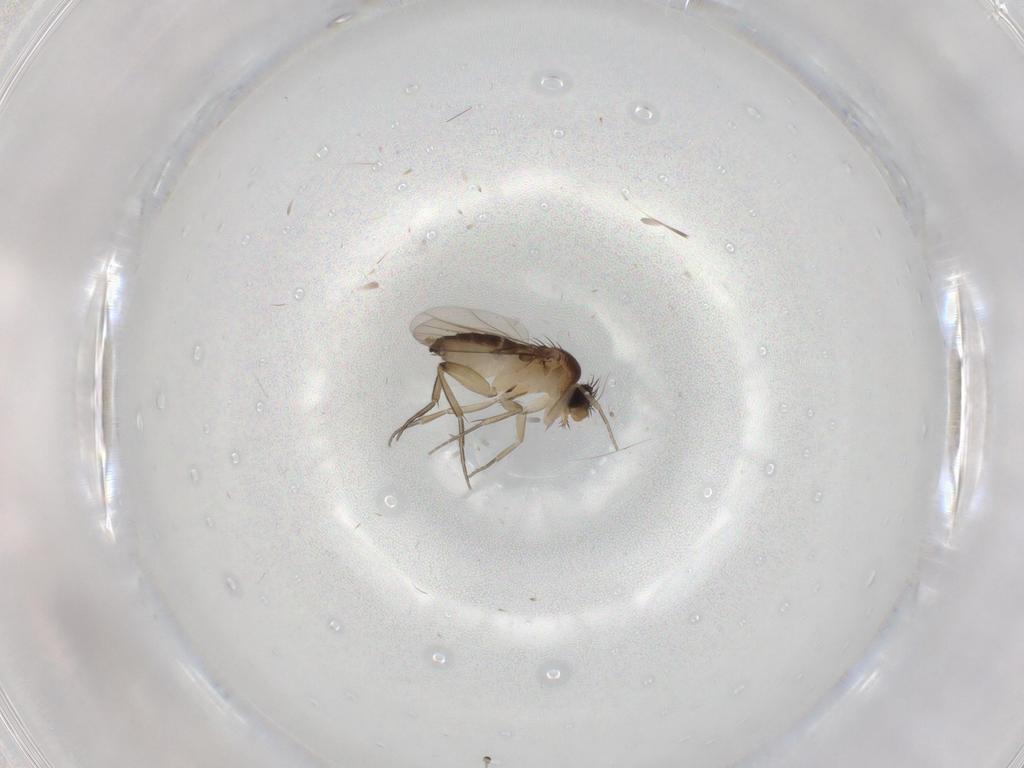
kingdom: Animalia
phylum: Arthropoda
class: Insecta
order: Diptera
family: Phoridae
